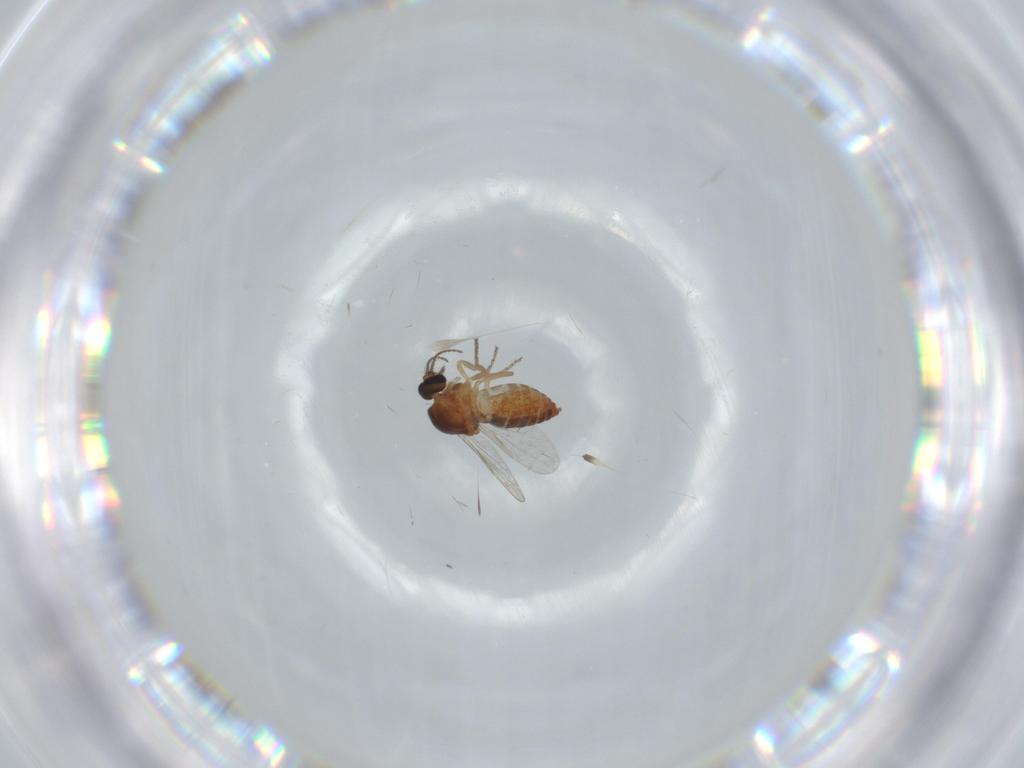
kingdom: Animalia
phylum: Arthropoda
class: Insecta
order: Diptera
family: Ceratopogonidae
